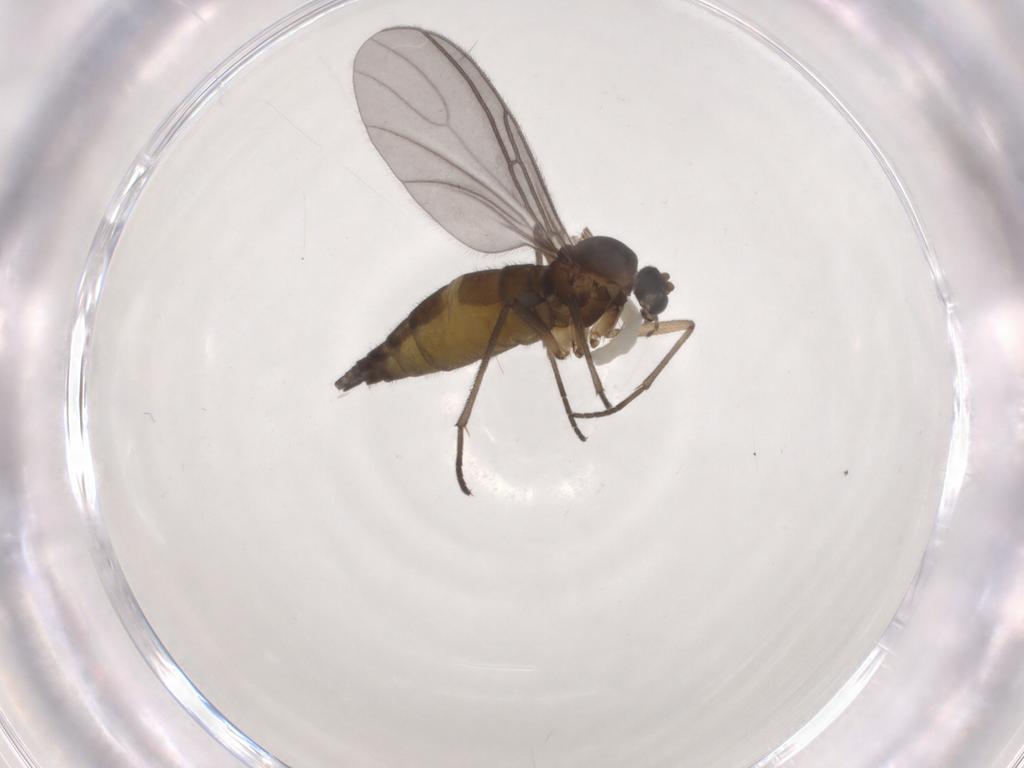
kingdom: Animalia
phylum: Arthropoda
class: Insecta
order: Diptera
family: Sciaridae
